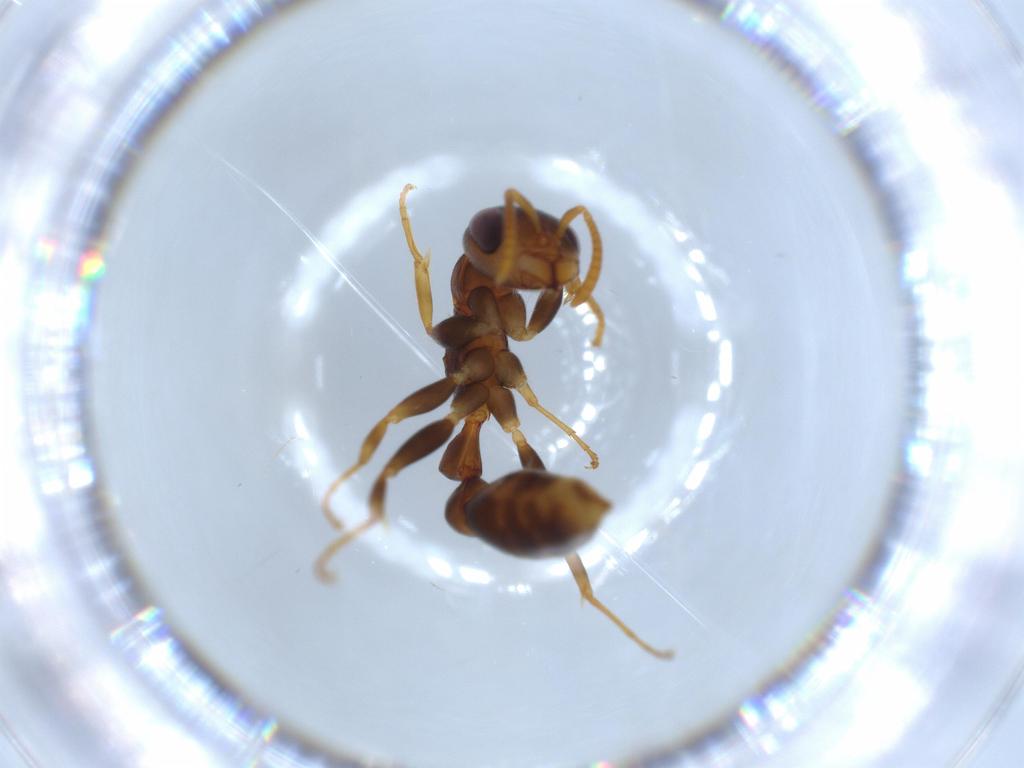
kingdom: Animalia
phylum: Arthropoda
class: Insecta
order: Hymenoptera
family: Formicidae
